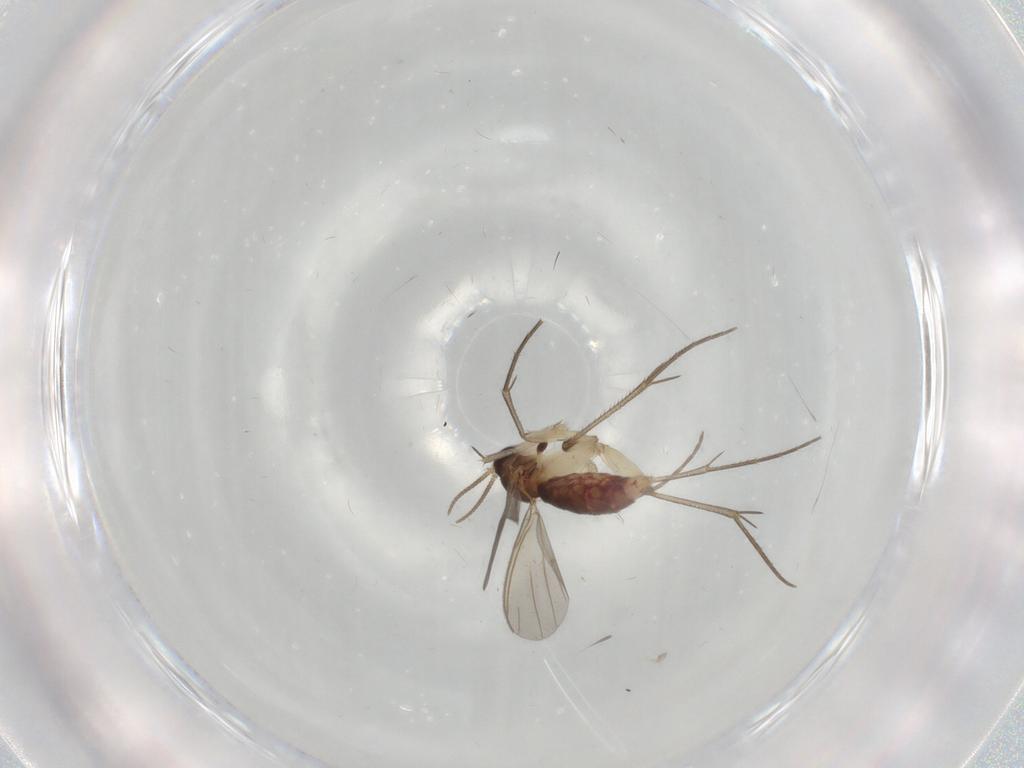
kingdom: Animalia
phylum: Arthropoda
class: Insecta
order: Diptera
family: Mycetophilidae
